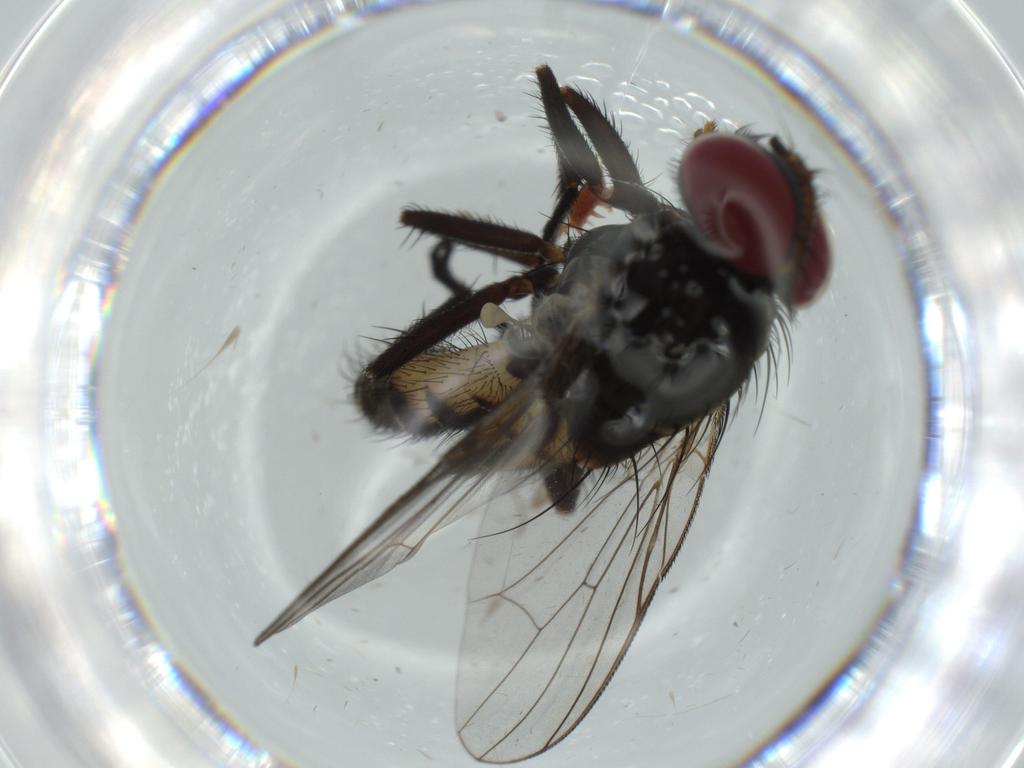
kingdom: Animalia
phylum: Arthropoda
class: Insecta
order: Diptera
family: Fannia
